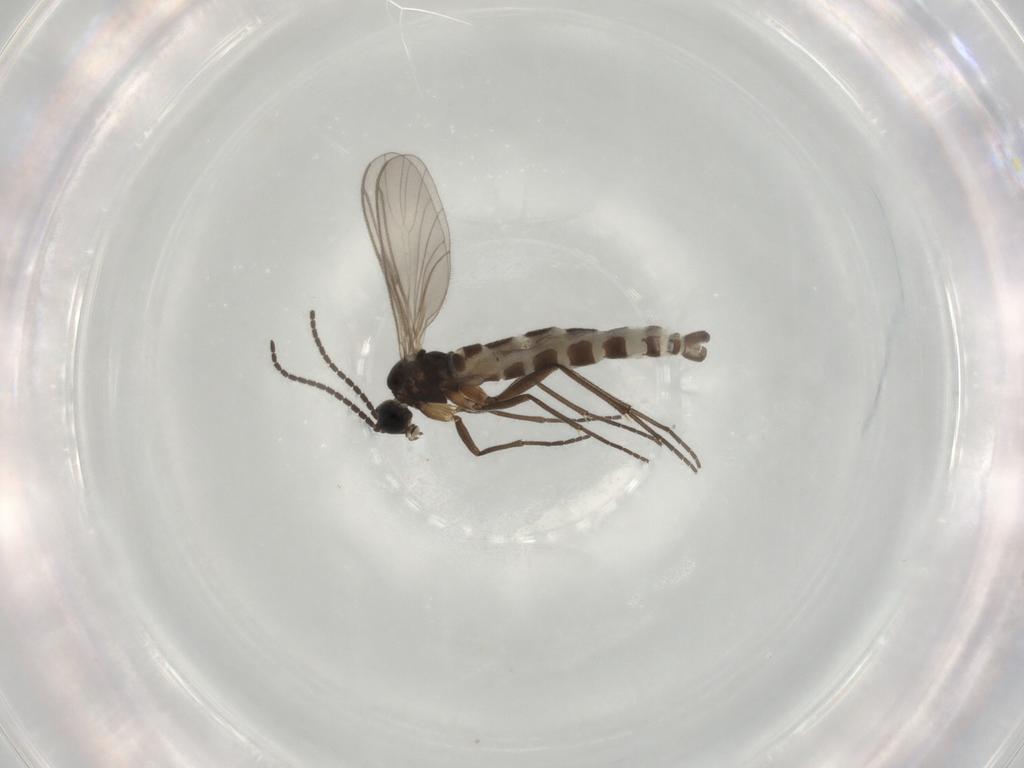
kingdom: Animalia
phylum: Arthropoda
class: Insecta
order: Diptera
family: Sciaridae
